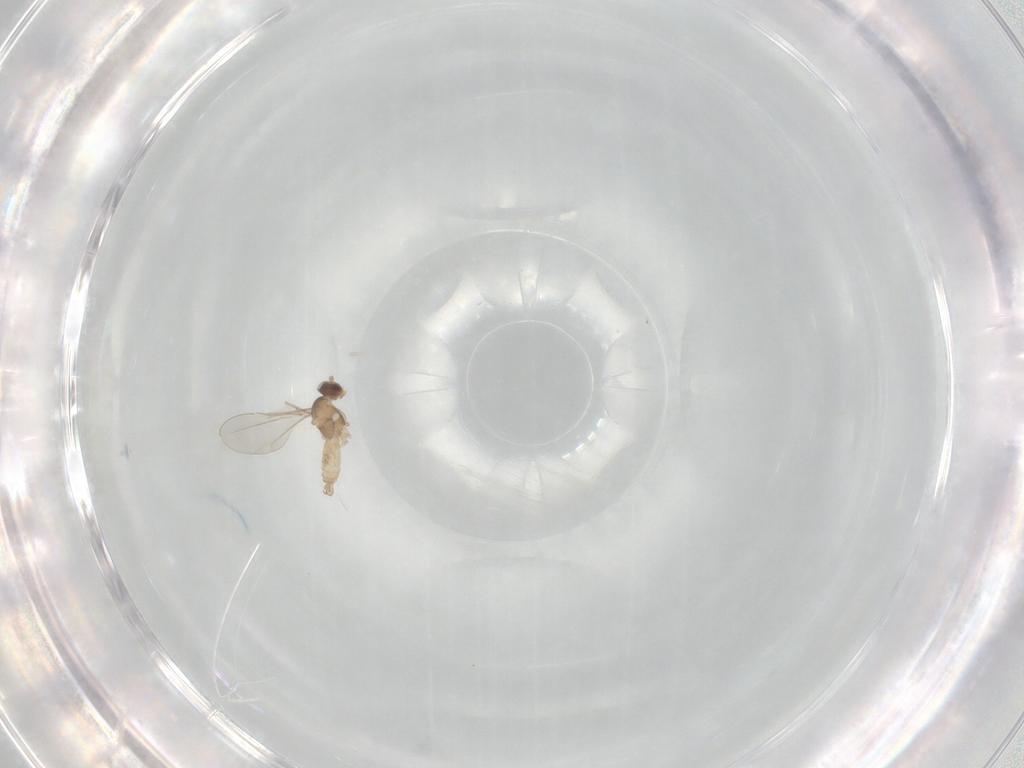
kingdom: Animalia
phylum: Arthropoda
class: Insecta
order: Diptera
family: Cecidomyiidae
